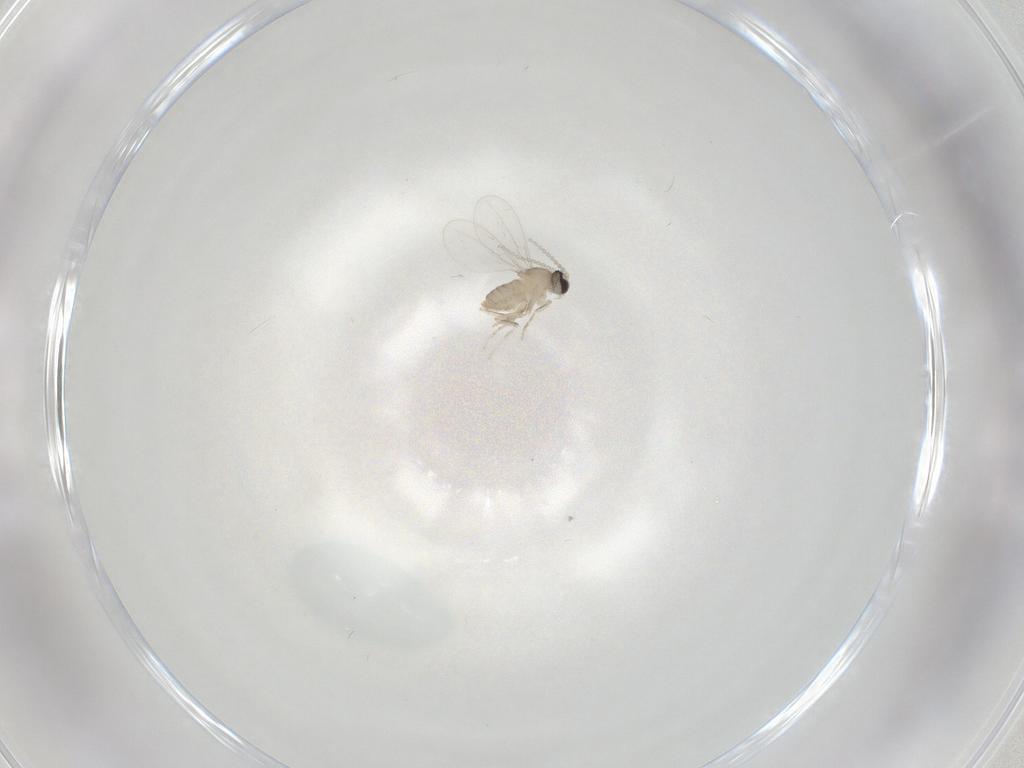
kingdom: Animalia
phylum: Arthropoda
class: Insecta
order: Diptera
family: Cecidomyiidae
